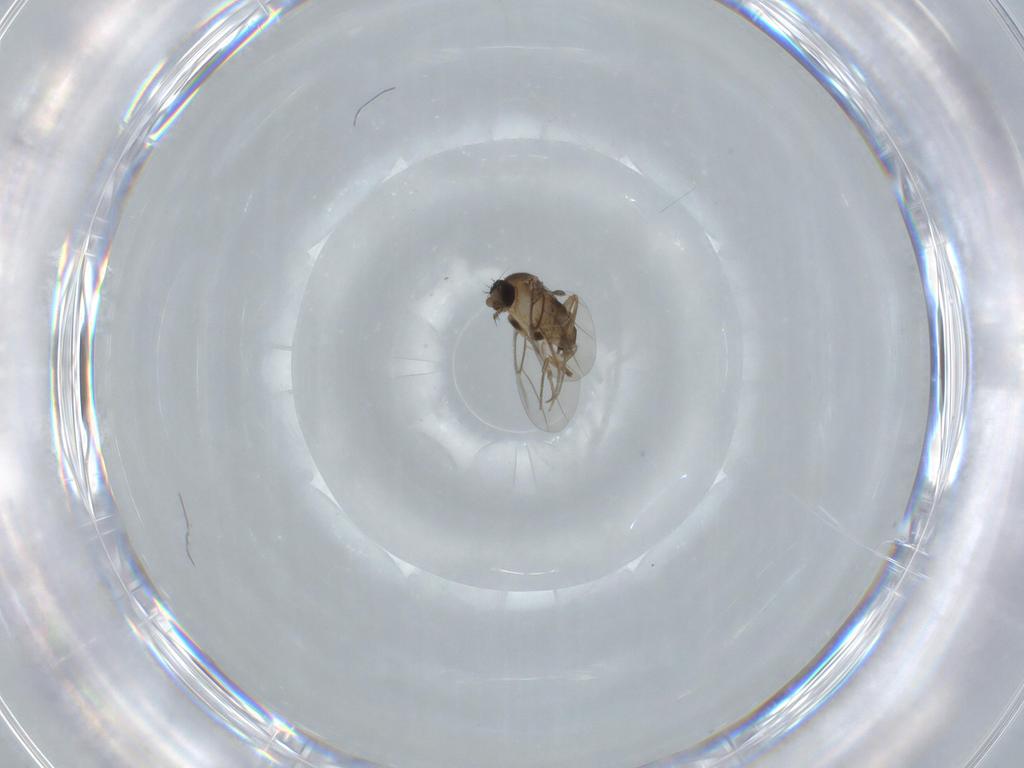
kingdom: Animalia
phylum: Arthropoda
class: Insecta
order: Diptera
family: Phoridae
